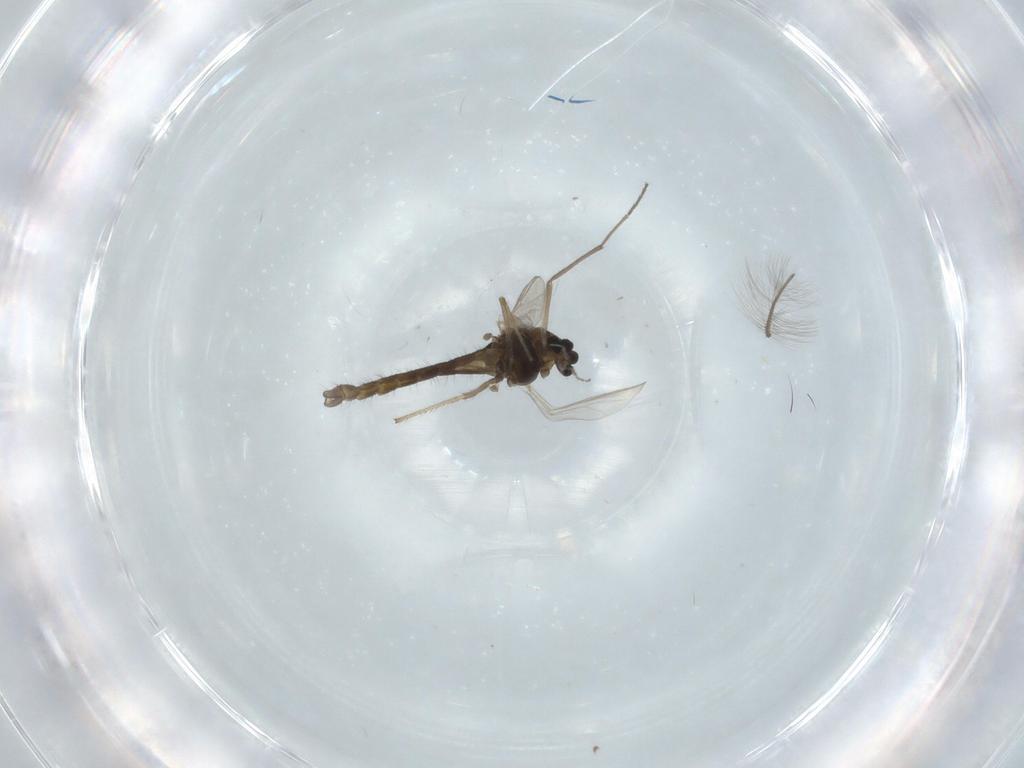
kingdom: Animalia
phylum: Arthropoda
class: Insecta
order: Diptera
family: Chironomidae
